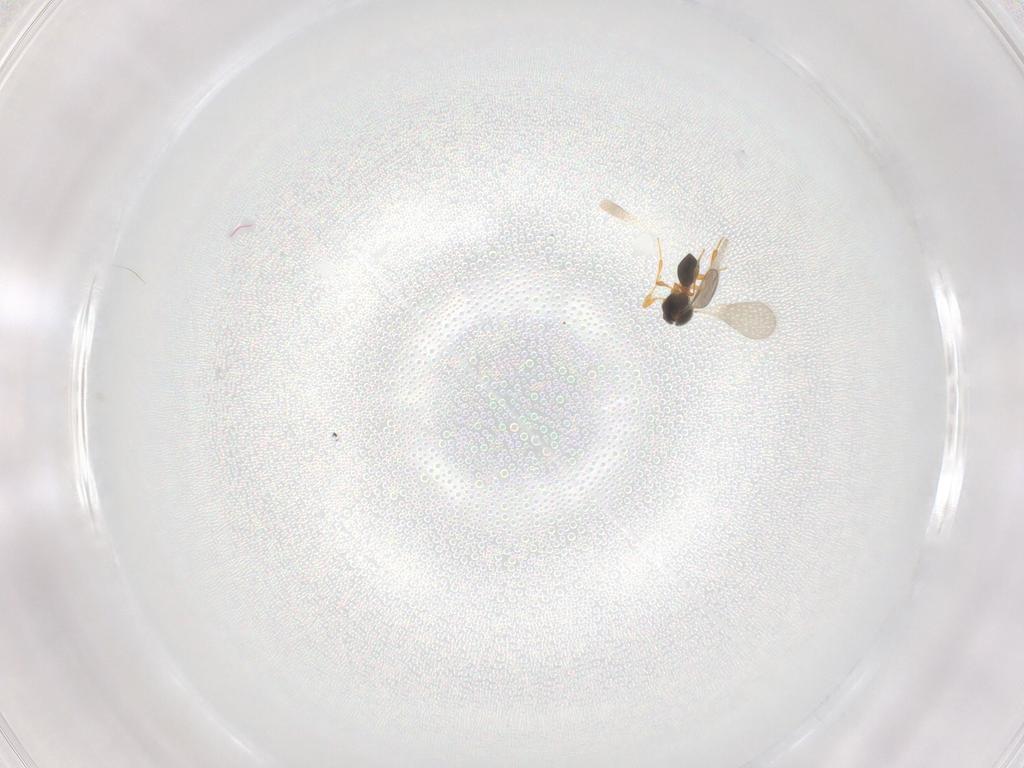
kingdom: Animalia
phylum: Arthropoda
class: Insecta
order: Hymenoptera
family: Platygastridae
